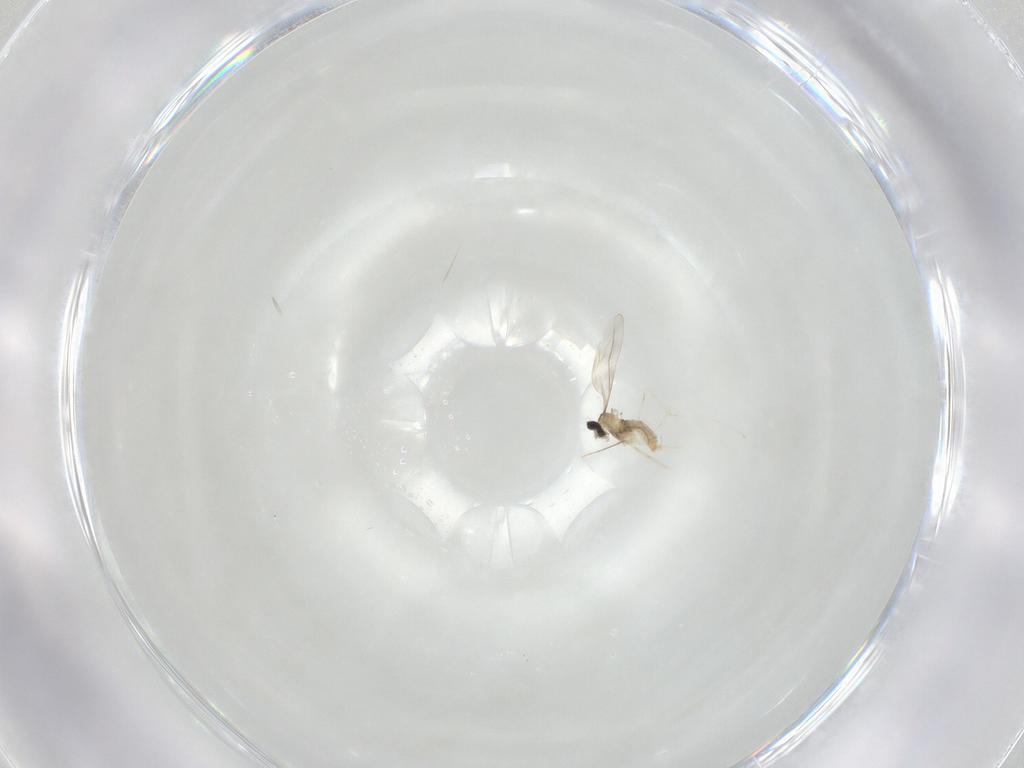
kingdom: Animalia
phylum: Arthropoda
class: Insecta
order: Diptera
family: Cecidomyiidae
